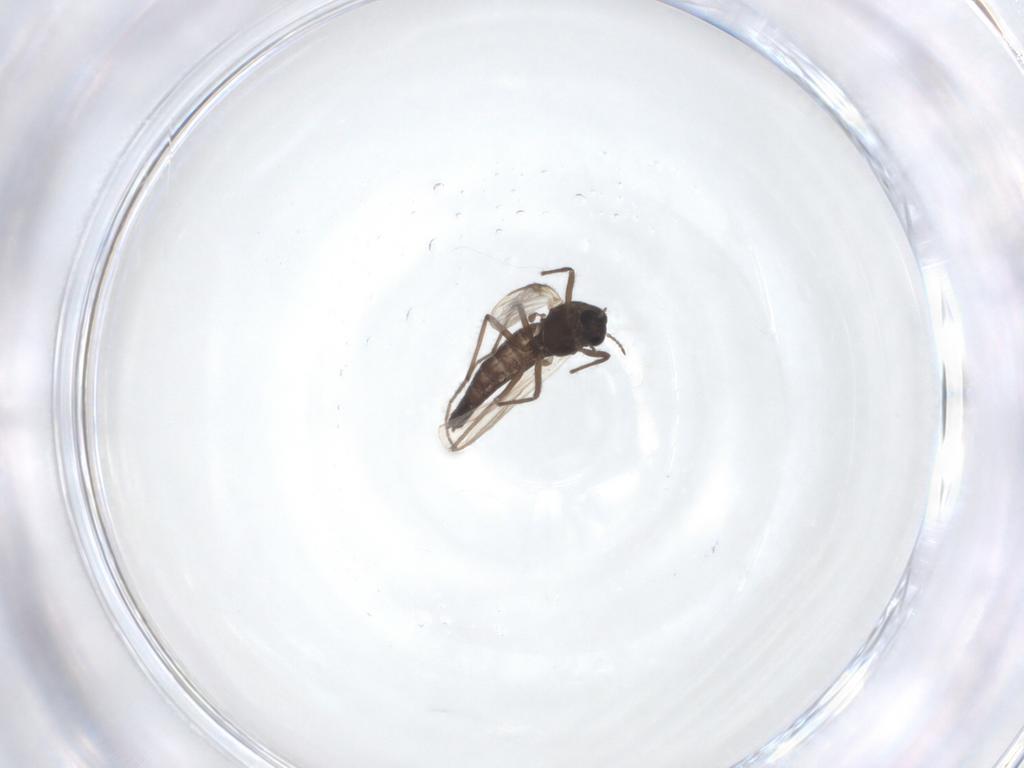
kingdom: Animalia
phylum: Arthropoda
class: Insecta
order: Diptera
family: Chironomidae
